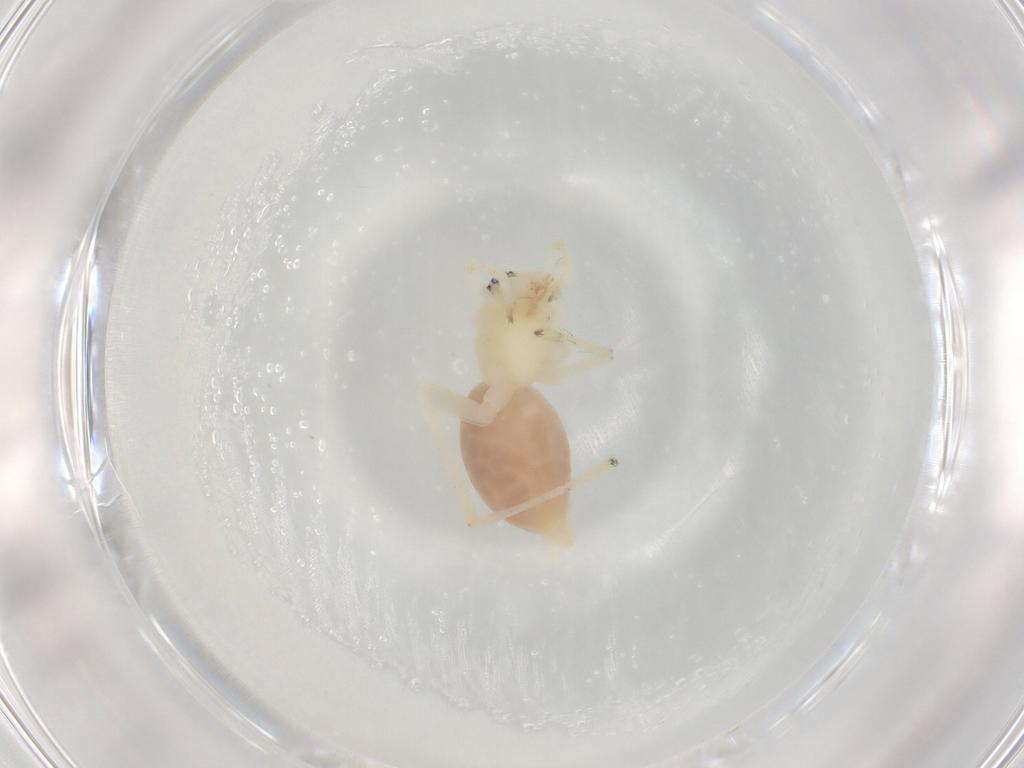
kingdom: Animalia
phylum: Arthropoda
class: Arachnida
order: Araneae
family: Anyphaenidae
